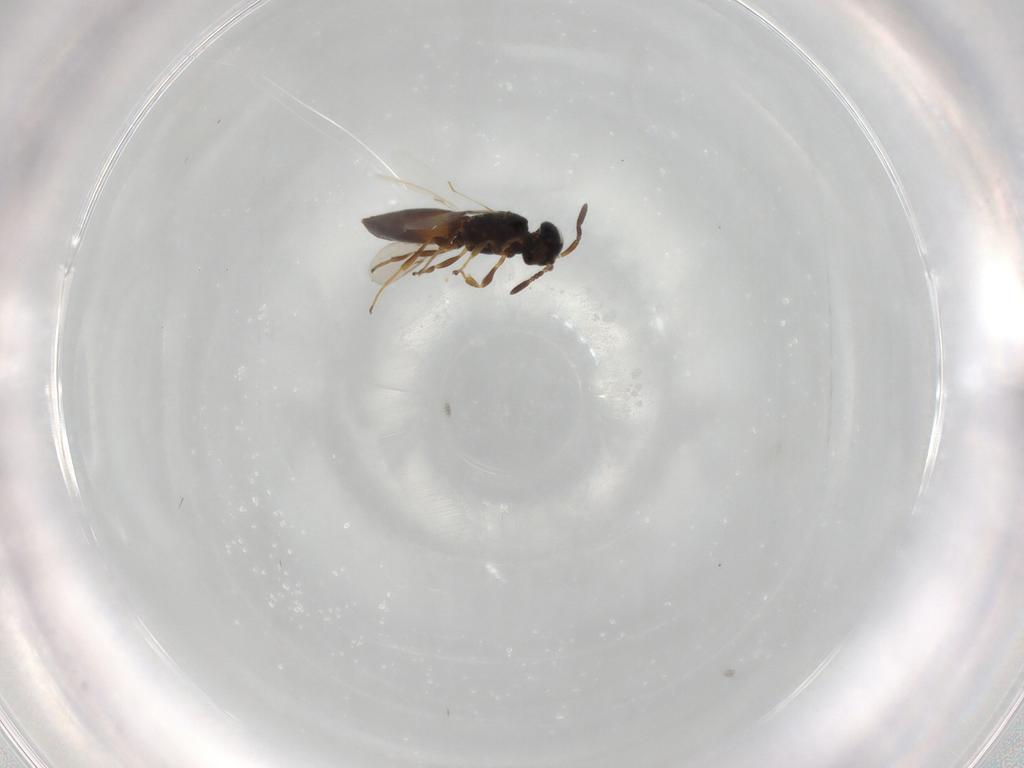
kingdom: Animalia
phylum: Arthropoda
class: Insecta
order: Hymenoptera
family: Scelionidae
